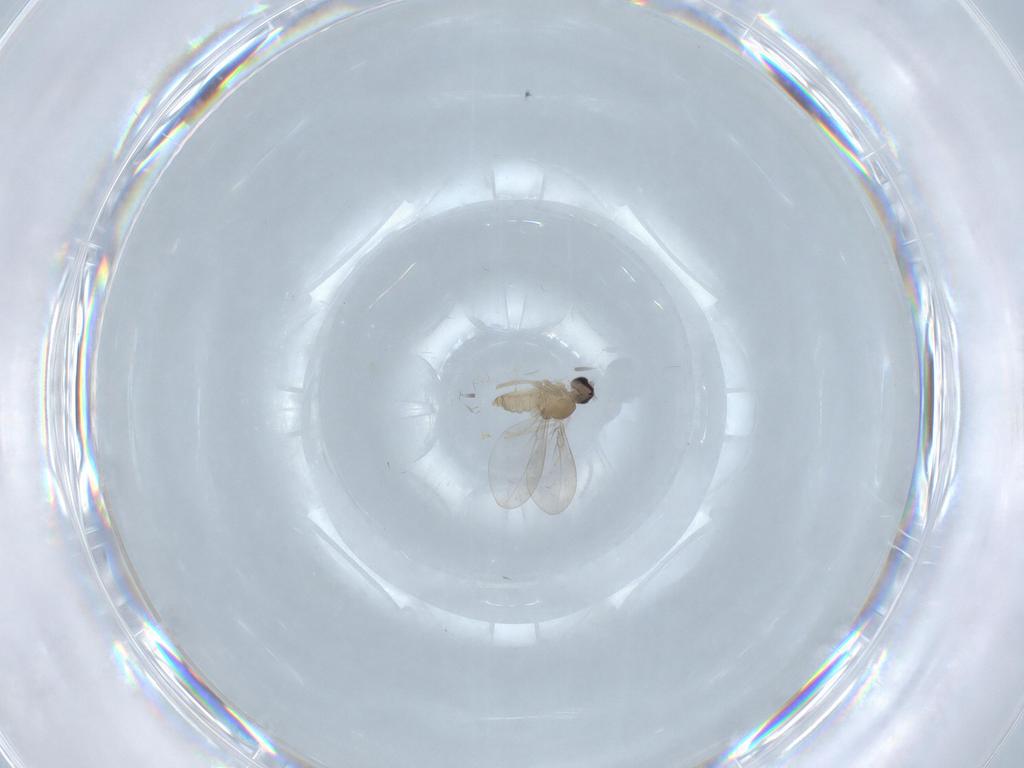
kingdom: Animalia
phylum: Arthropoda
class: Insecta
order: Diptera
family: Cecidomyiidae
